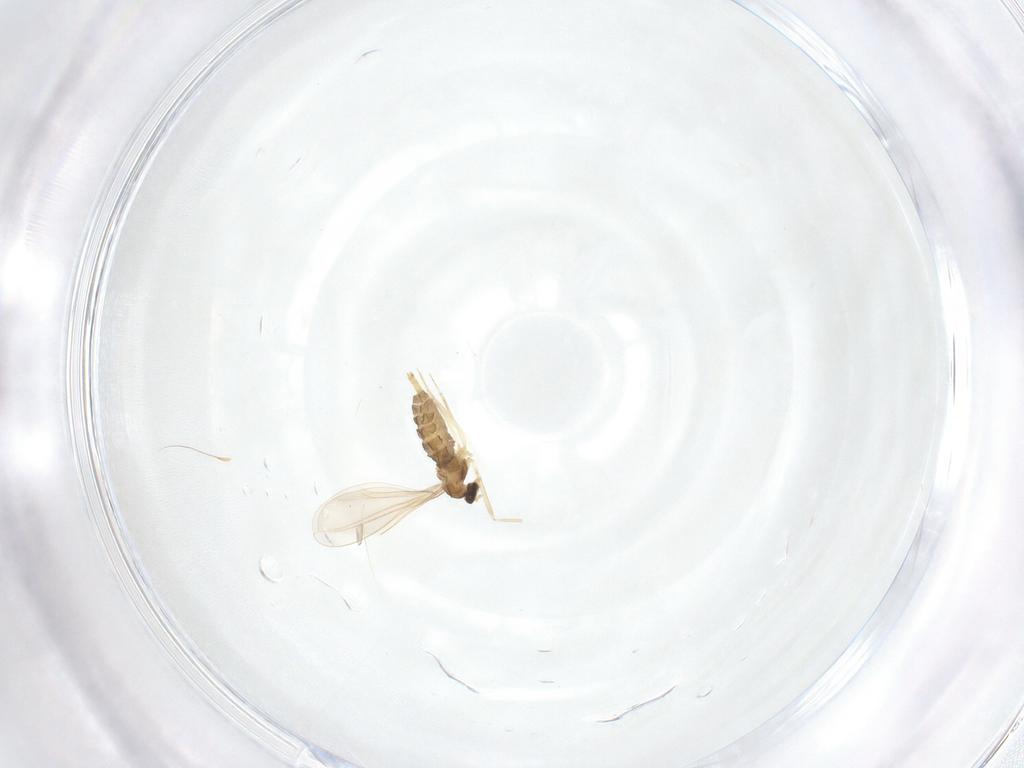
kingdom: Animalia
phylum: Arthropoda
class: Insecta
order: Diptera
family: Cecidomyiidae
